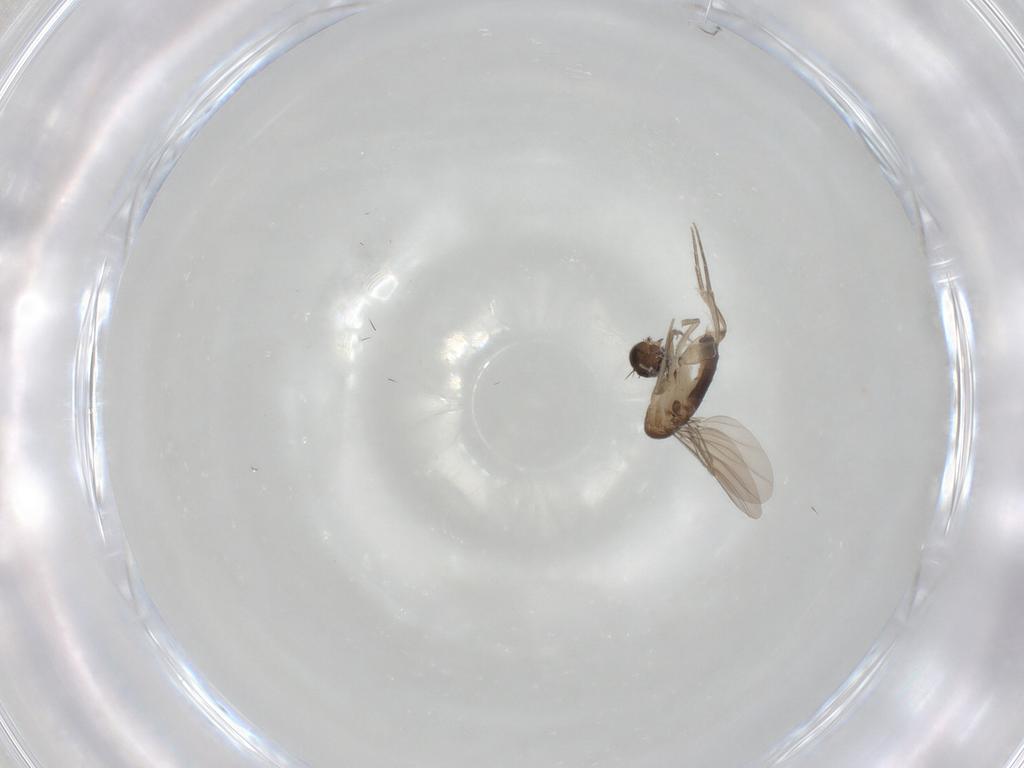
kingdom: Animalia
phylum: Arthropoda
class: Insecta
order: Diptera
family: Phoridae
